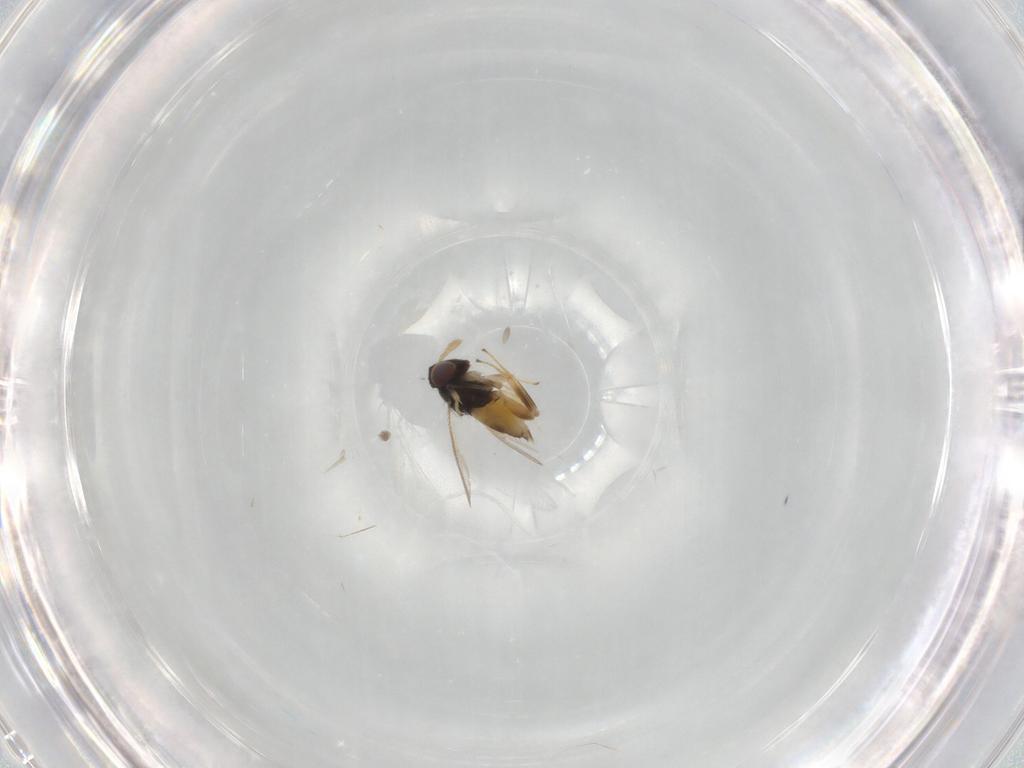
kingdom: Animalia
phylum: Arthropoda
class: Insecta
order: Hymenoptera
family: Aphelinidae
